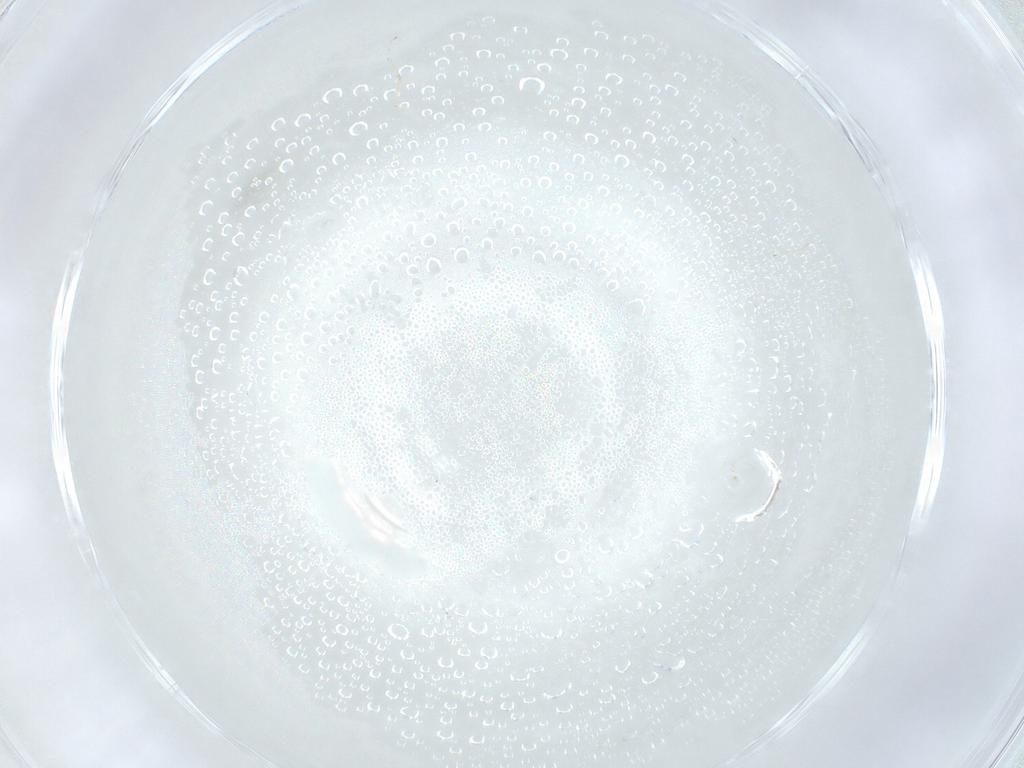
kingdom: Animalia
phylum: Arthropoda
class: Insecta
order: Diptera
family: Cecidomyiidae
